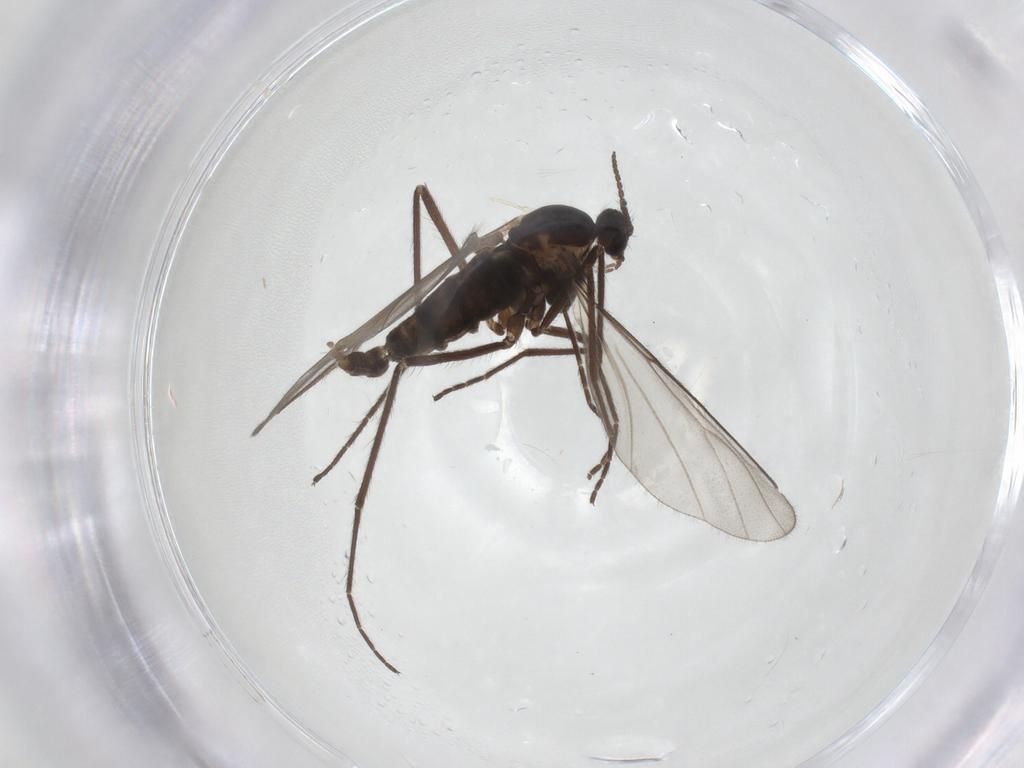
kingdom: Animalia
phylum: Arthropoda
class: Insecta
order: Diptera
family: Cecidomyiidae
